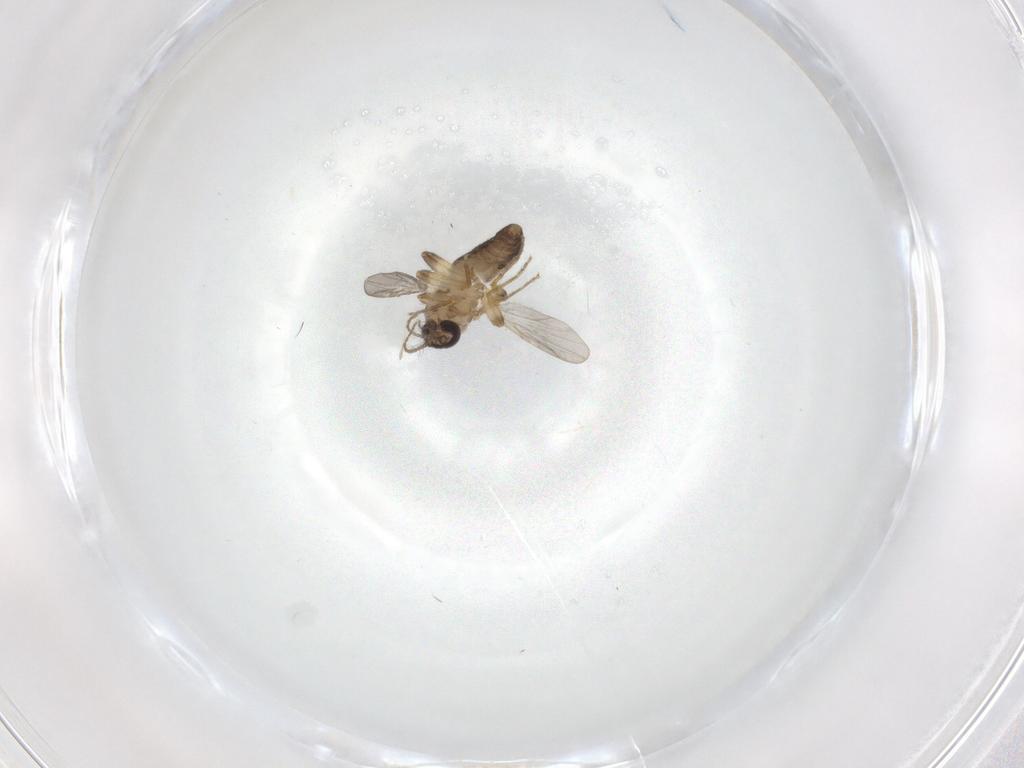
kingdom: Animalia
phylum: Arthropoda
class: Insecta
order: Diptera
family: Ceratopogonidae
